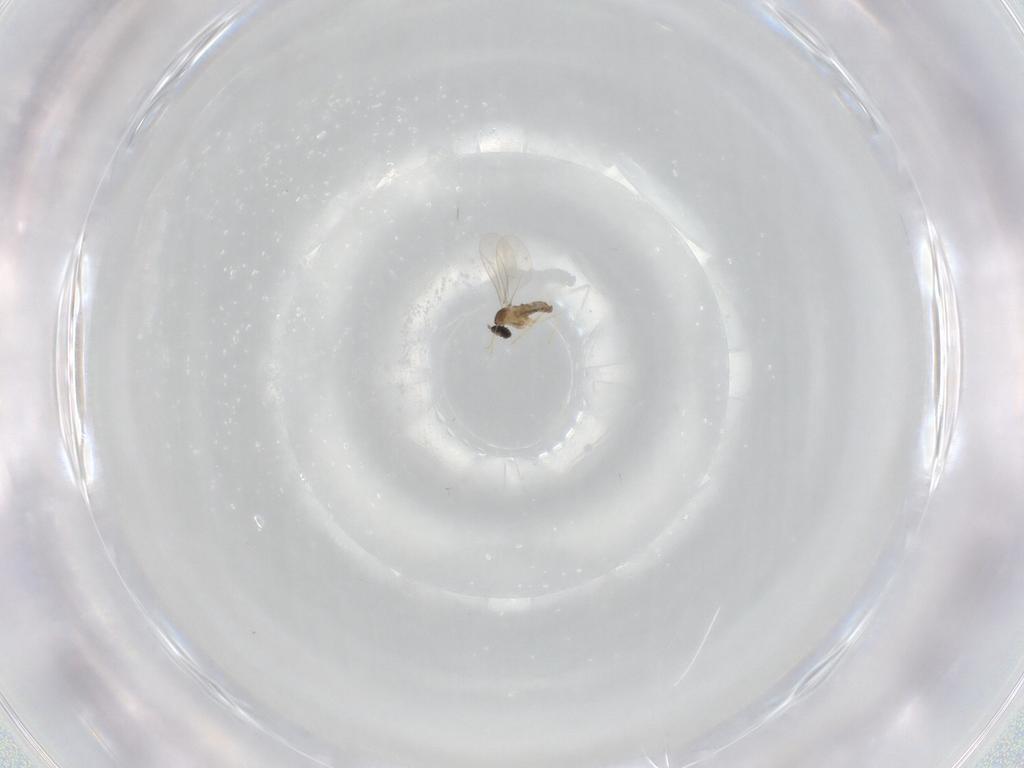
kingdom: Animalia
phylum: Arthropoda
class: Insecta
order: Diptera
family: Cecidomyiidae
